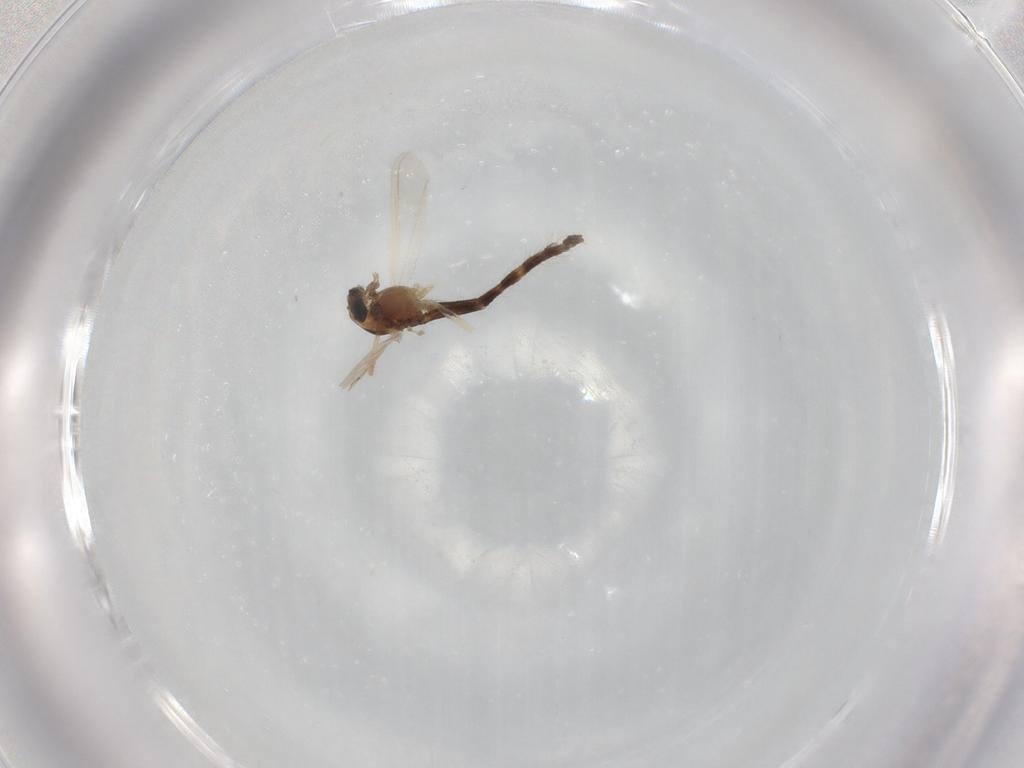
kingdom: Animalia
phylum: Arthropoda
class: Insecta
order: Diptera
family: Chironomidae
